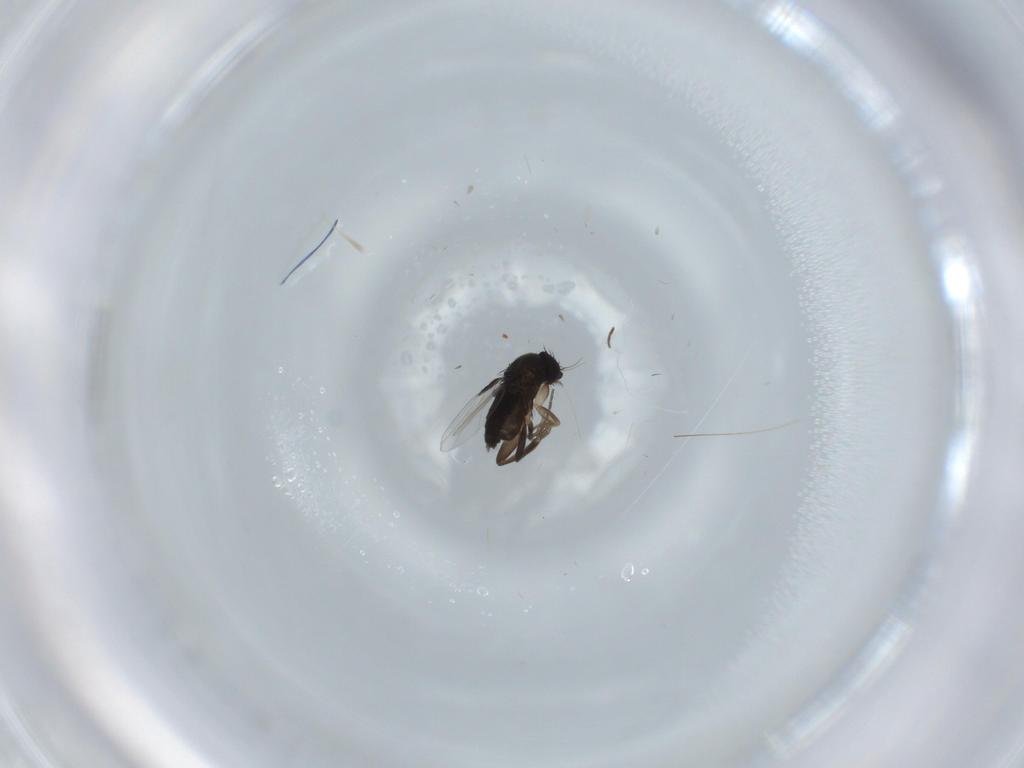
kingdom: Animalia
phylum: Arthropoda
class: Insecta
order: Diptera
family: Phoridae
